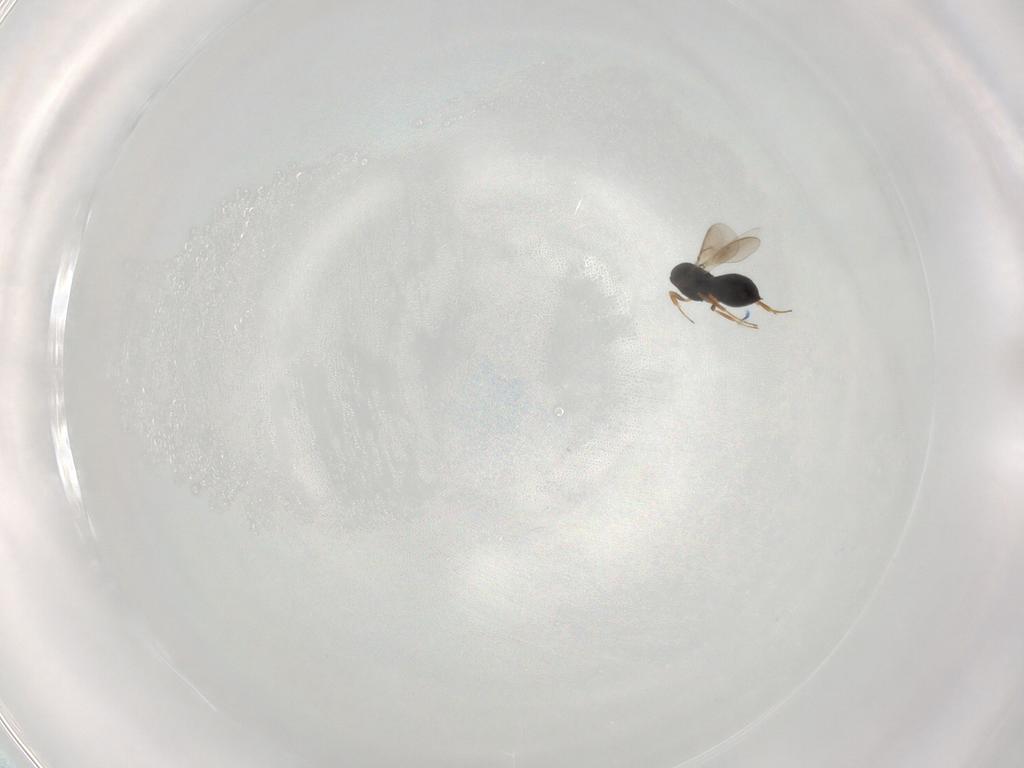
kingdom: Animalia
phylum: Arthropoda
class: Insecta
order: Hymenoptera
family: Scelionidae
